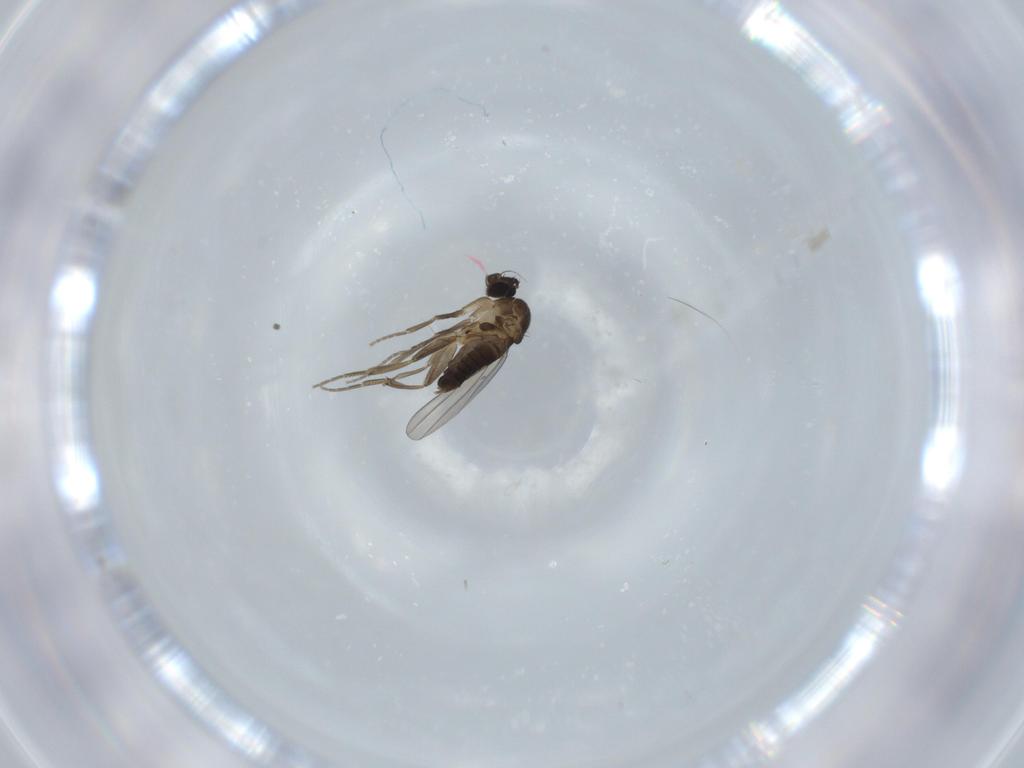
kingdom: Animalia
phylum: Arthropoda
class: Insecta
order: Diptera
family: Phoridae
